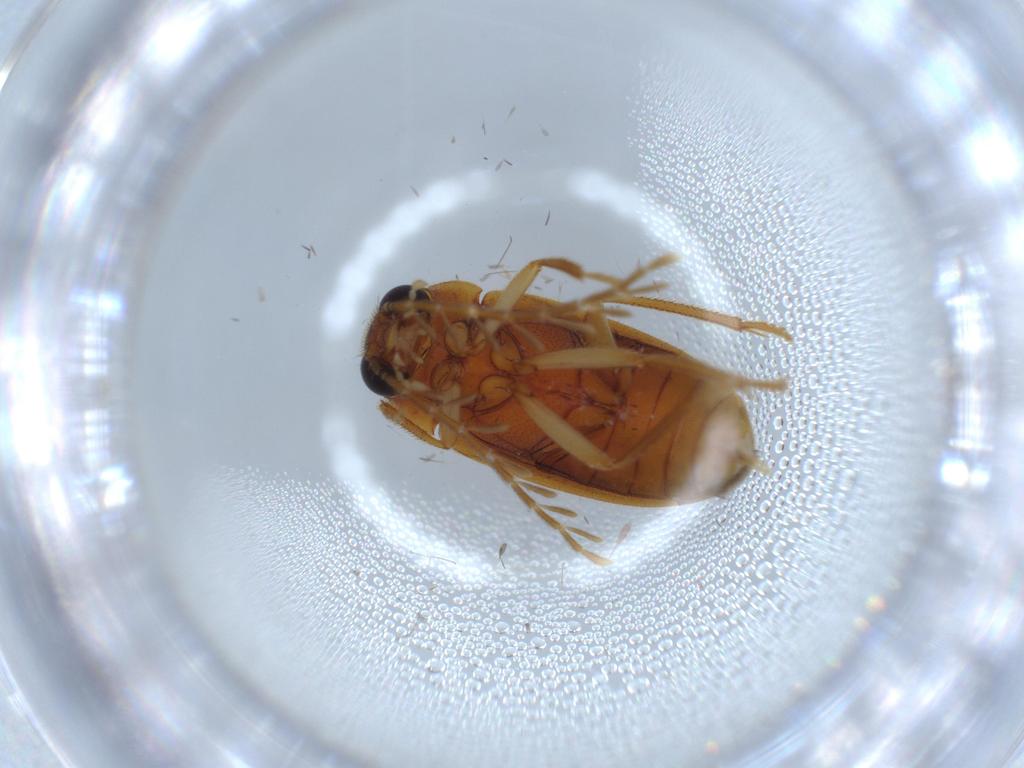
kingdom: Animalia
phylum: Arthropoda
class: Insecta
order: Coleoptera
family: Ptilodactylidae
